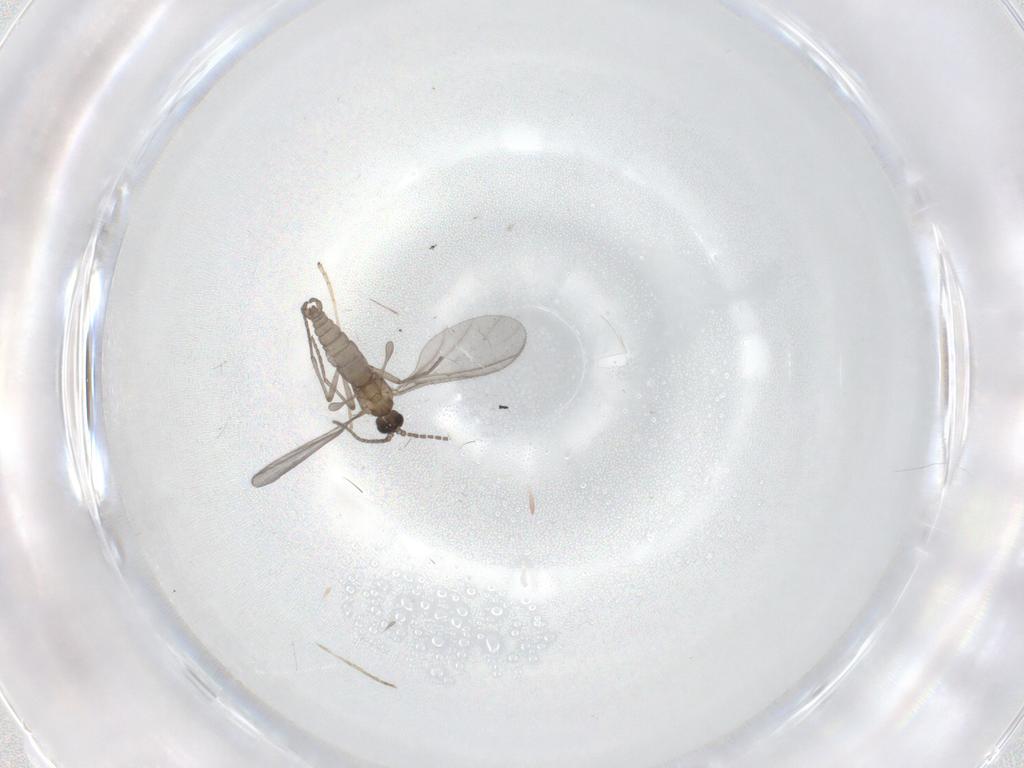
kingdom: Animalia
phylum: Arthropoda
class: Insecta
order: Diptera
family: Sciaridae
